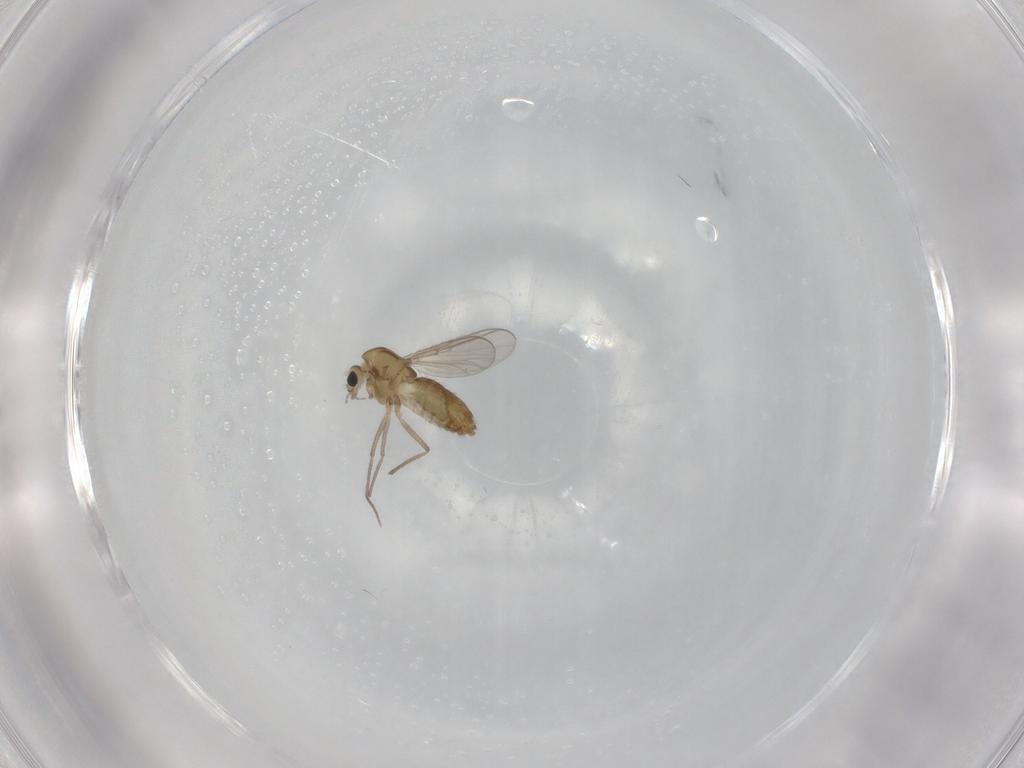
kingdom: Animalia
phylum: Arthropoda
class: Insecta
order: Diptera
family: Chironomidae
